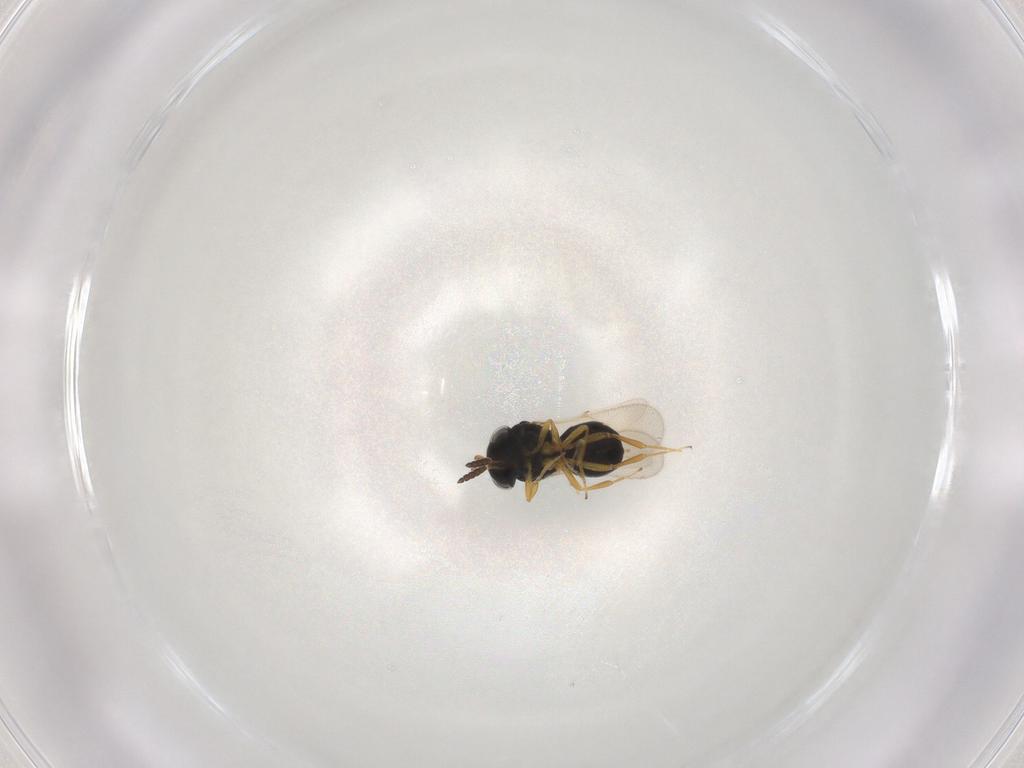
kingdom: Animalia
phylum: Arthropoda
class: Insecta
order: Hymenoptera
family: Scelionidae
